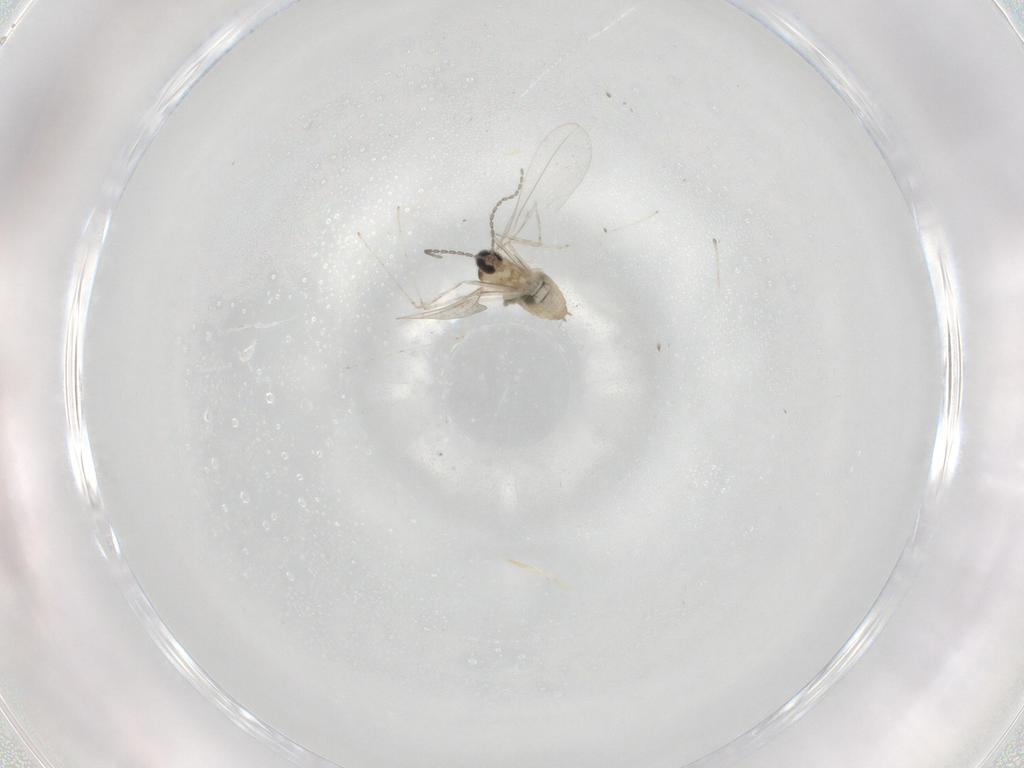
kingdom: Animalia
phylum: Arthropoda
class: Insecta
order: Diptera
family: Cecidomyiidae
